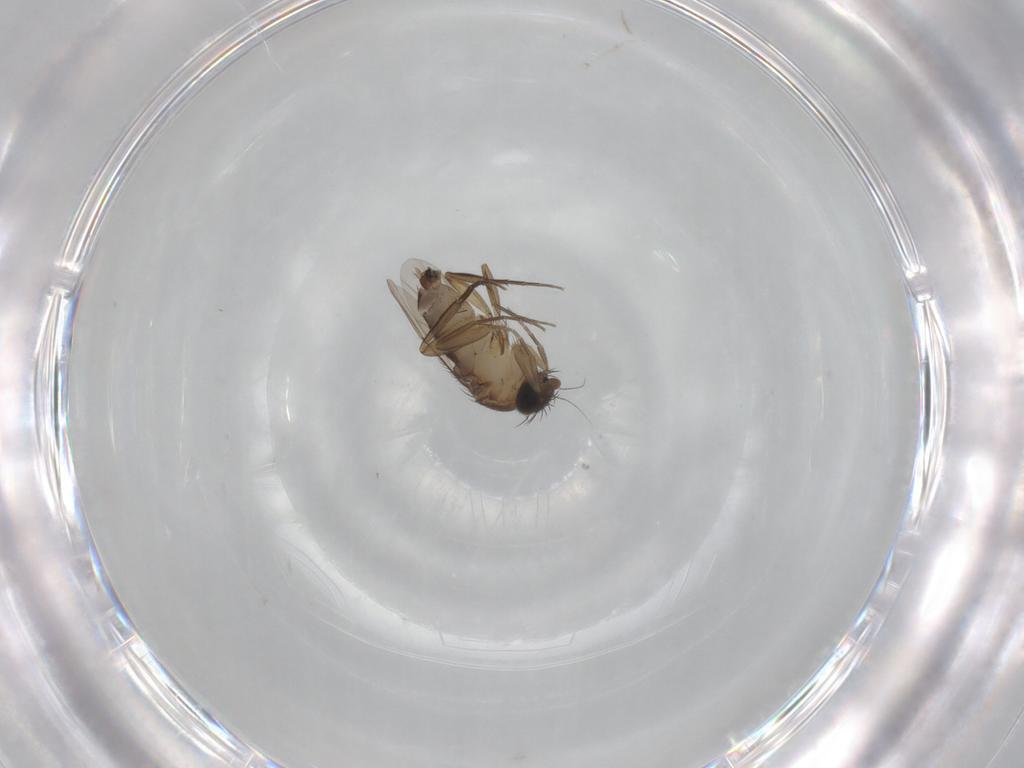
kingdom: Animalia
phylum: Arthropoda
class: Insecta
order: Diptera
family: Phoridae
